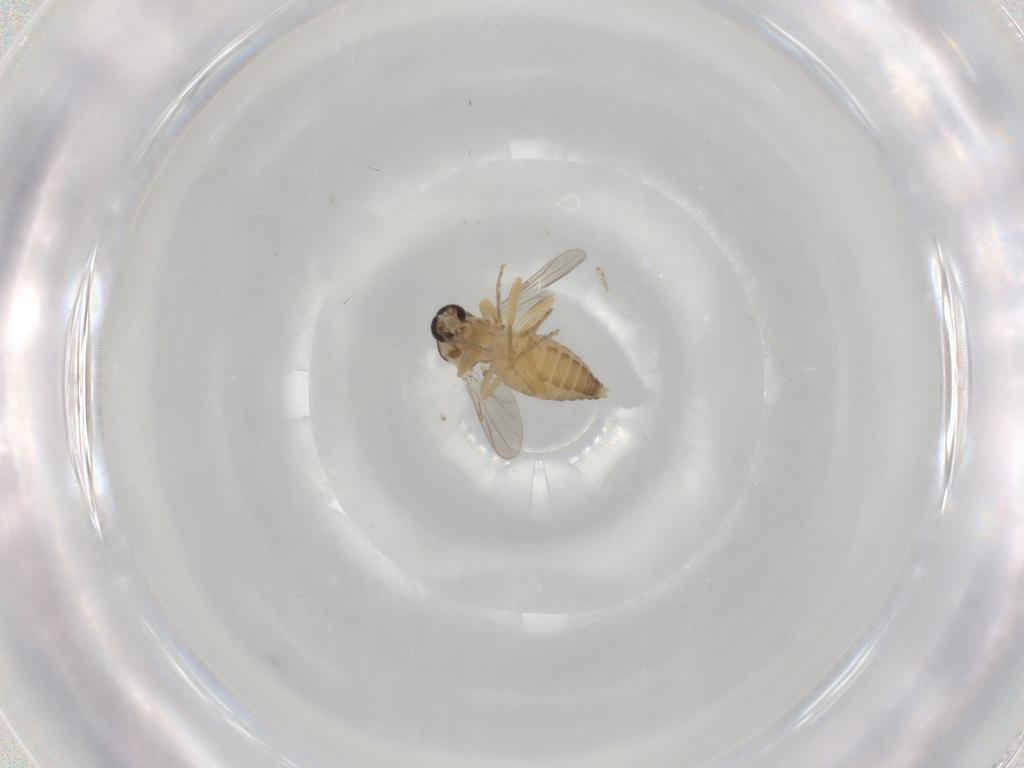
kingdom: Animalia
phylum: Arthropoda
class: Insecta
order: Diptera
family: Ceratopogonidae
